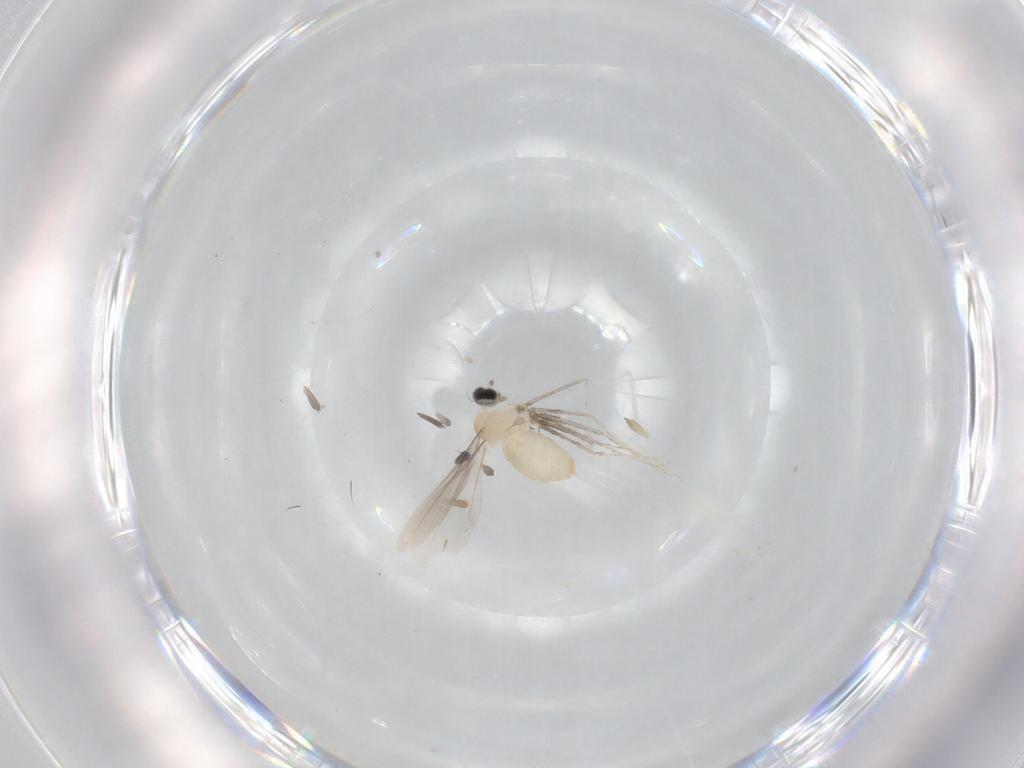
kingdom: Animalia
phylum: Arthropoda
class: Insecta
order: Diptera
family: Cecidomyiidae
